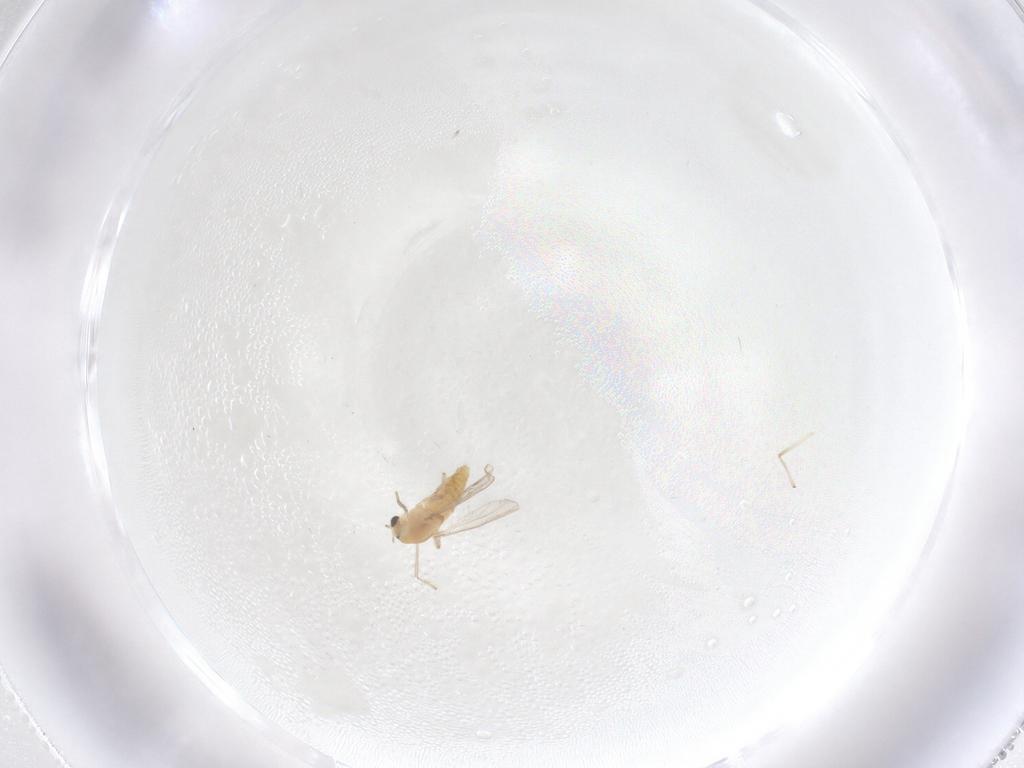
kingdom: Animalia
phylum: Arthropoda
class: Insecta
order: Diptera
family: Chironomidae
